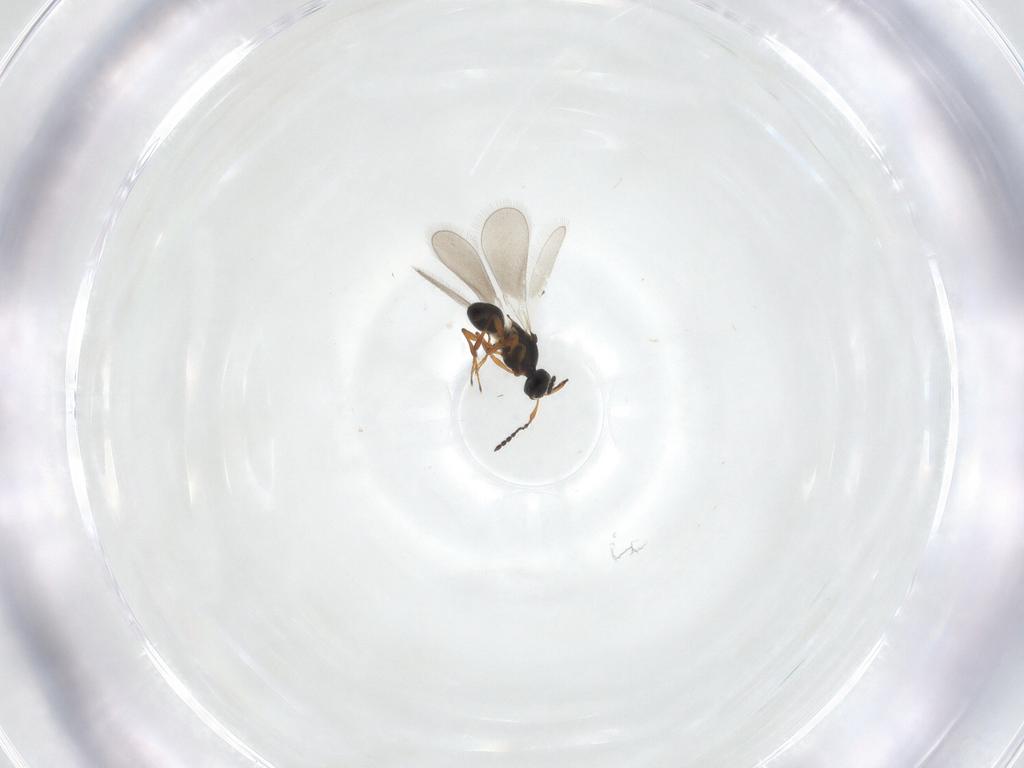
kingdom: Animalia
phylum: Arthropoda
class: Insecta
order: Hymenoptera
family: Platygastridae
